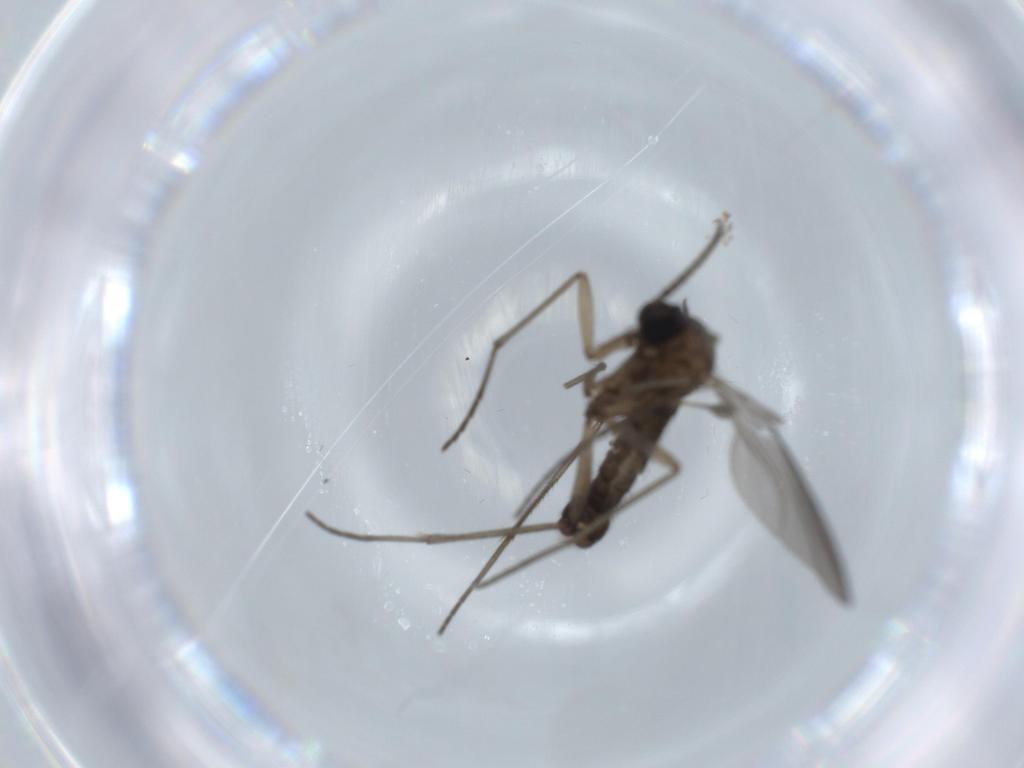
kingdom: Animalia
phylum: Arthropoda
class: Insecta
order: Diptera
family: Sciaridae
